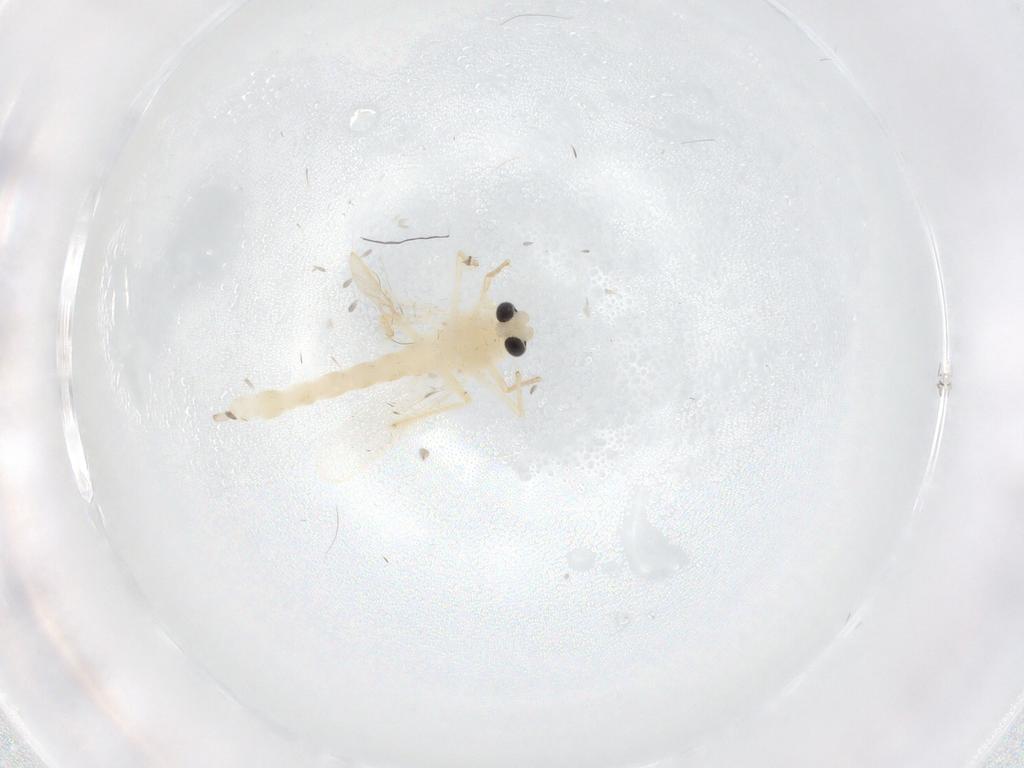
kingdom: Animalia
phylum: Arthropoda
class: Insecta
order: Diptera
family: Chironomidae
